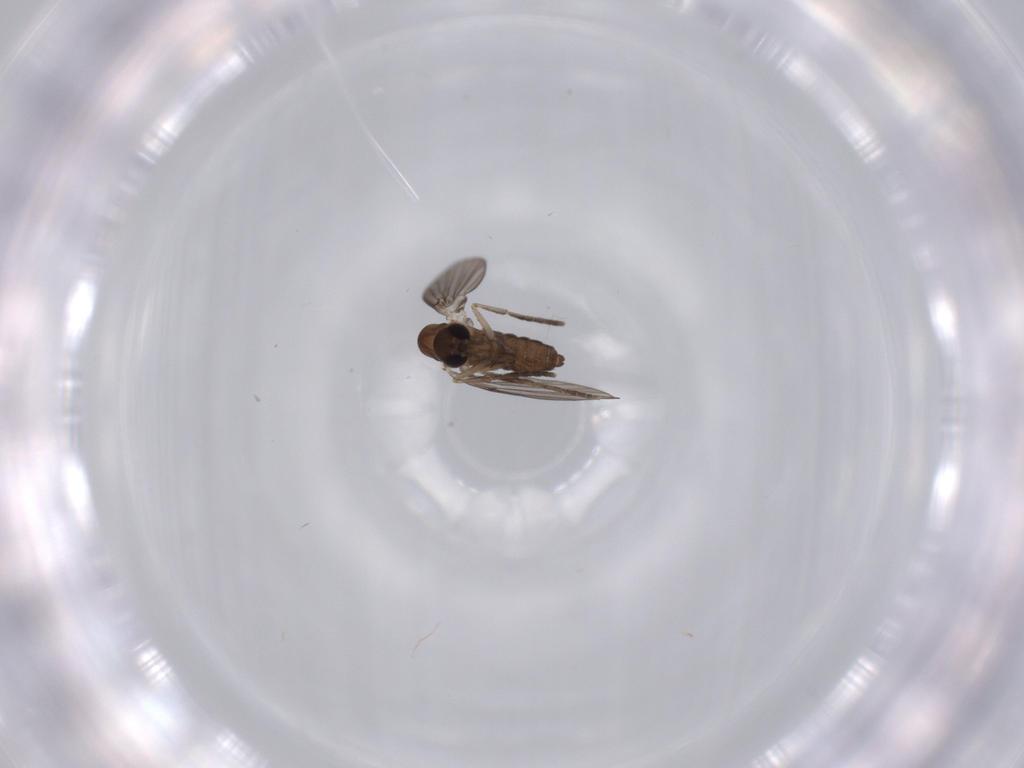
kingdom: Animalia
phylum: Arthropoda
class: Insecta
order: Diptera
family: Psychodidae
